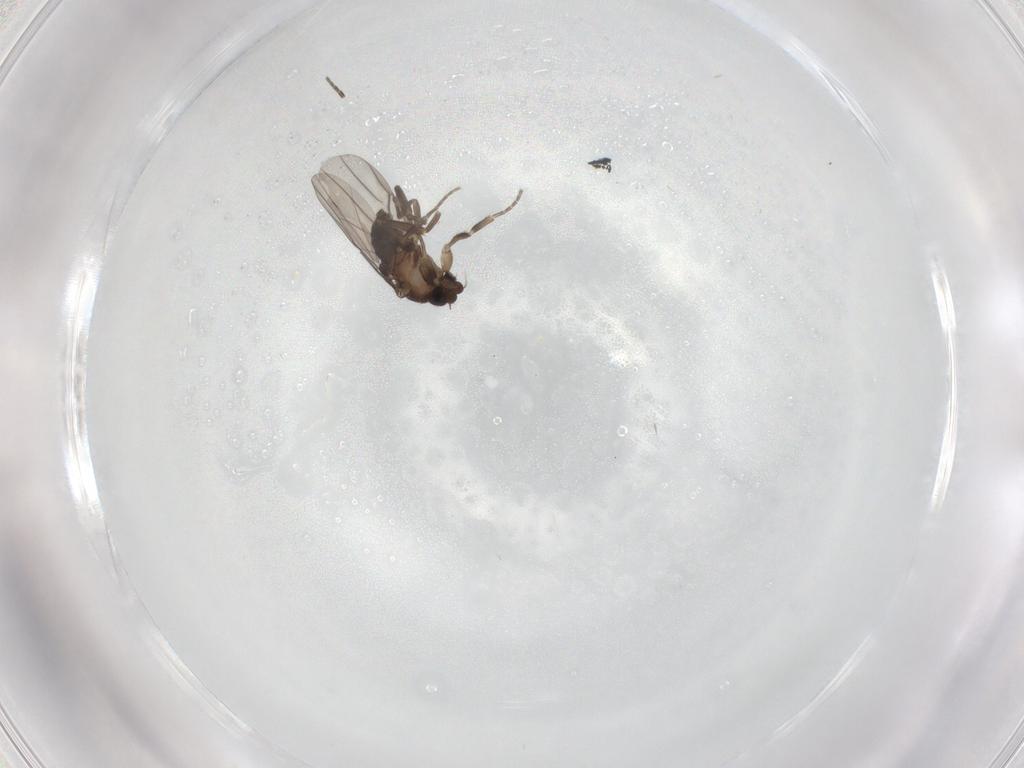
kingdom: Animalia
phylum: Arthropoda
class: Insecta
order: Diptera
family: Phoridae
